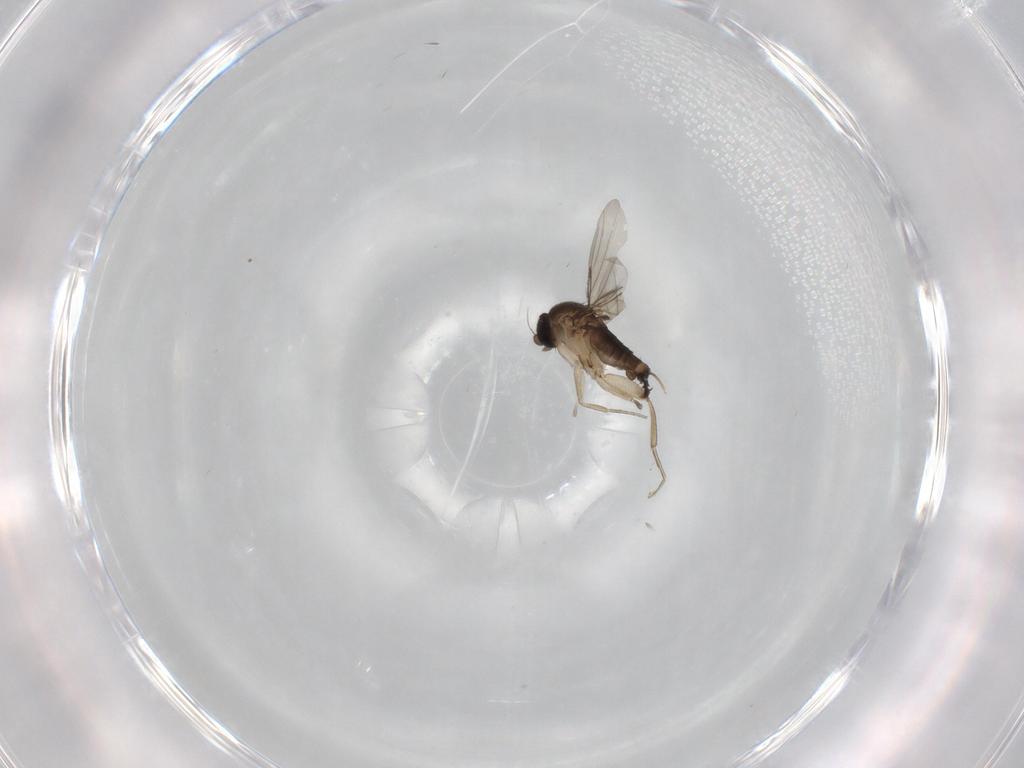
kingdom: Animalia
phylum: Arthropoda
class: Insecta
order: Diptera
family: Phoridae
